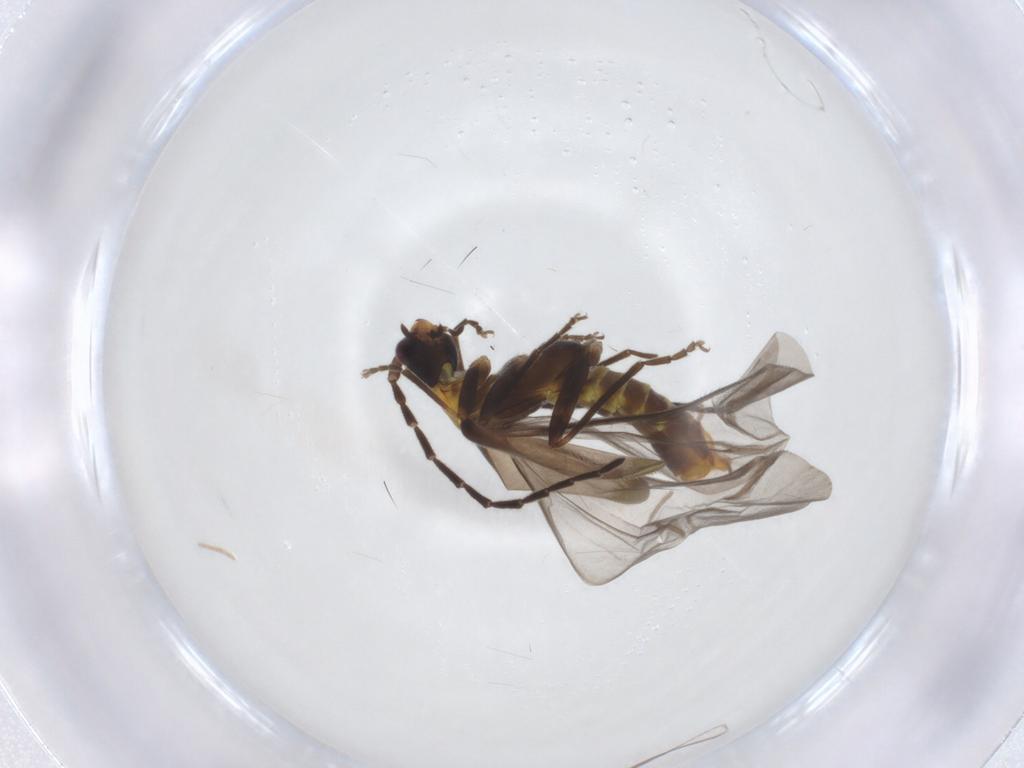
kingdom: Animalia
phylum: Arthropoda
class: Insecta
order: Coleoptera
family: Cantharidae
